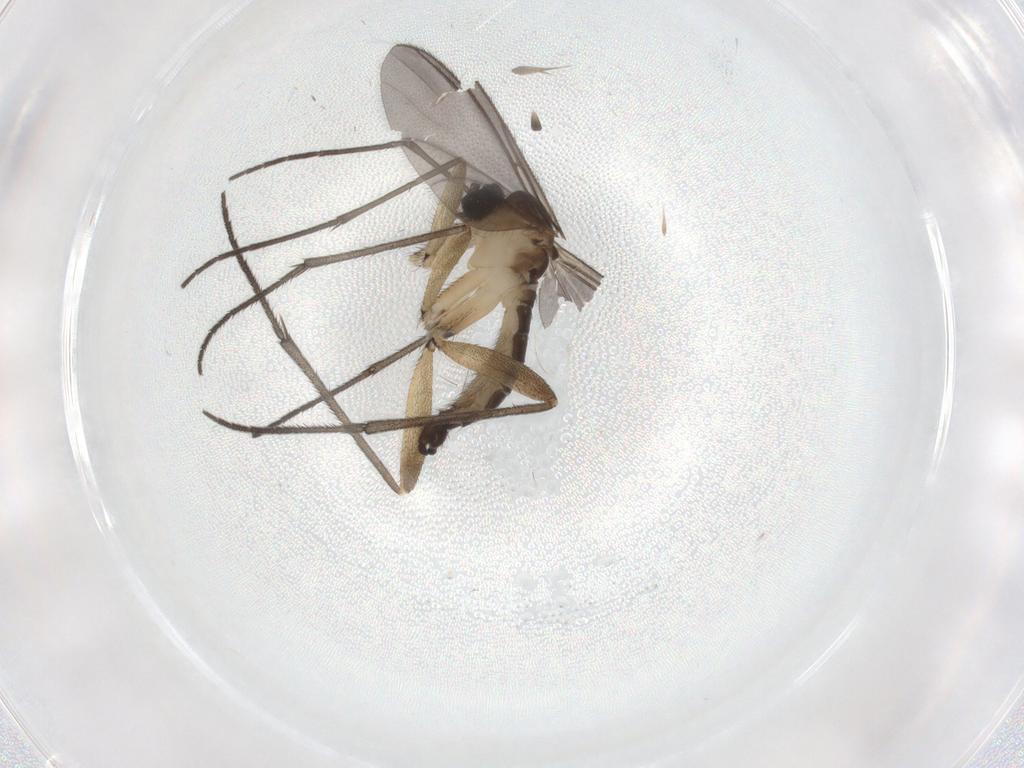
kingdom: Animalia
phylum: Arthropoda
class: Insecta
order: Diptera
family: Sciaridae
